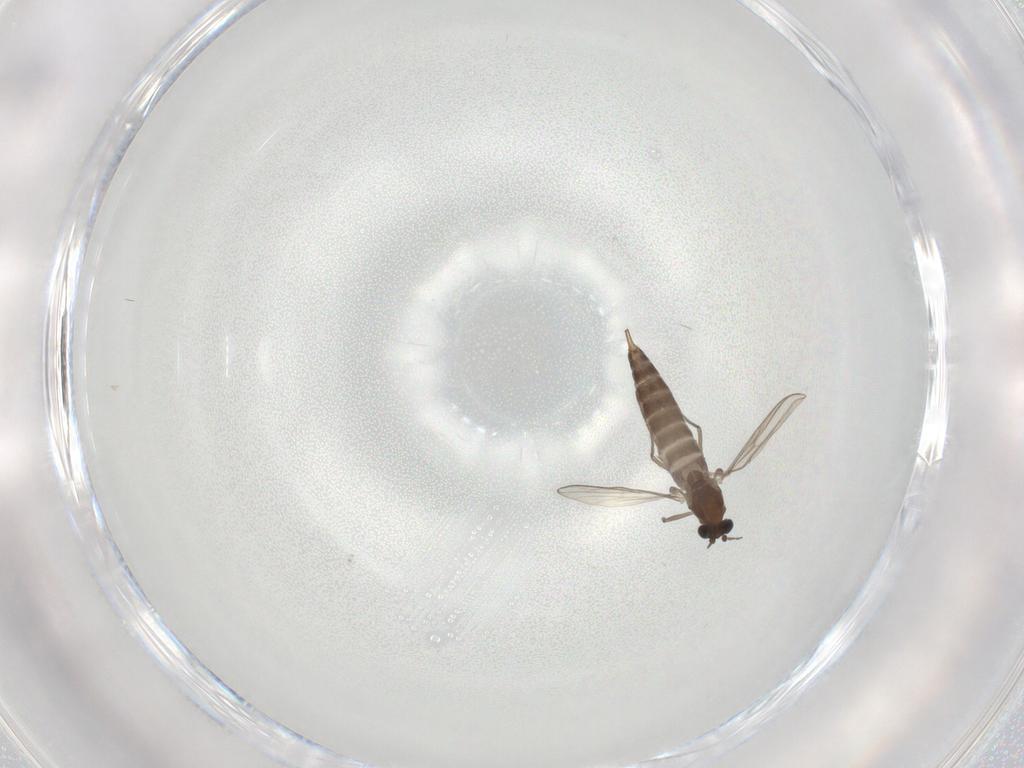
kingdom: Animalia
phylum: Arthropoda
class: Insecta
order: Diptera
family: Chironomidae
